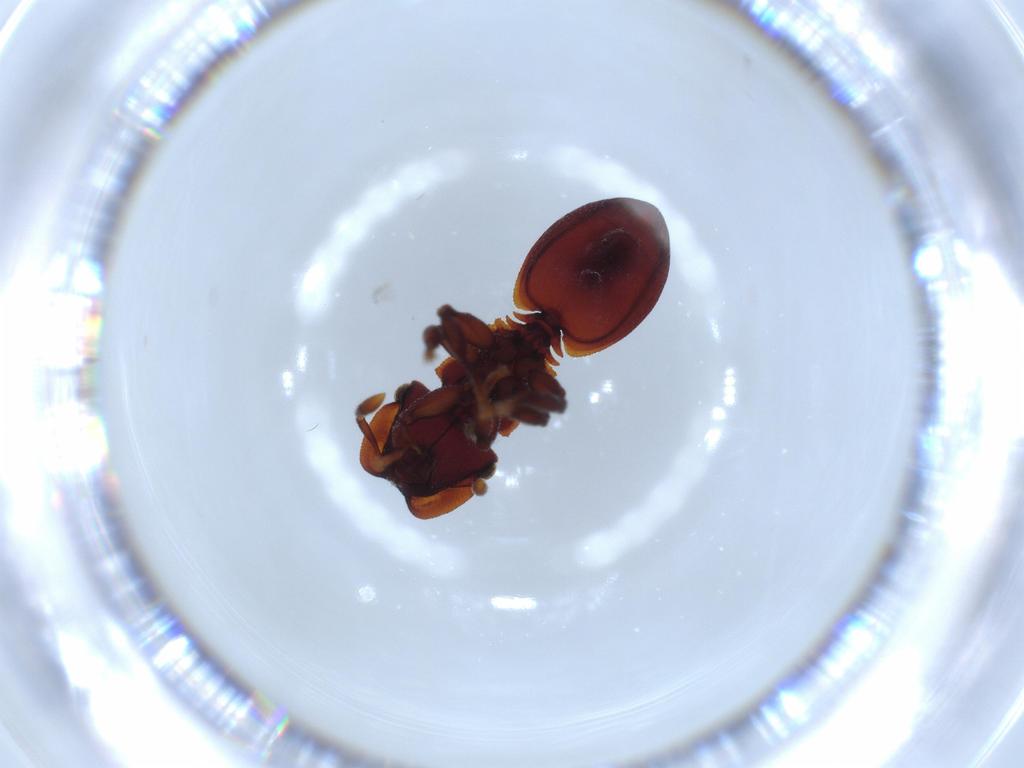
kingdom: Animalia
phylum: Arthropoda
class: Insecta
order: Hymenoptera
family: Formicidae
